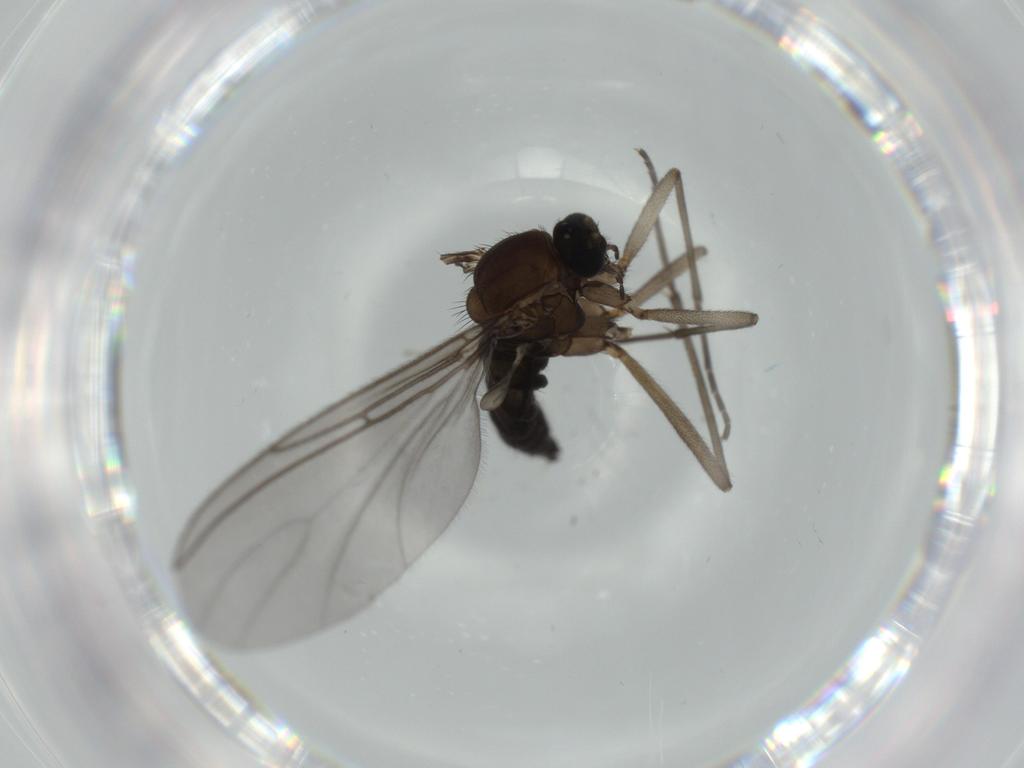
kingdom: Animalia
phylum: Arthropoda
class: Insecta
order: Diptera
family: Sciaridae
